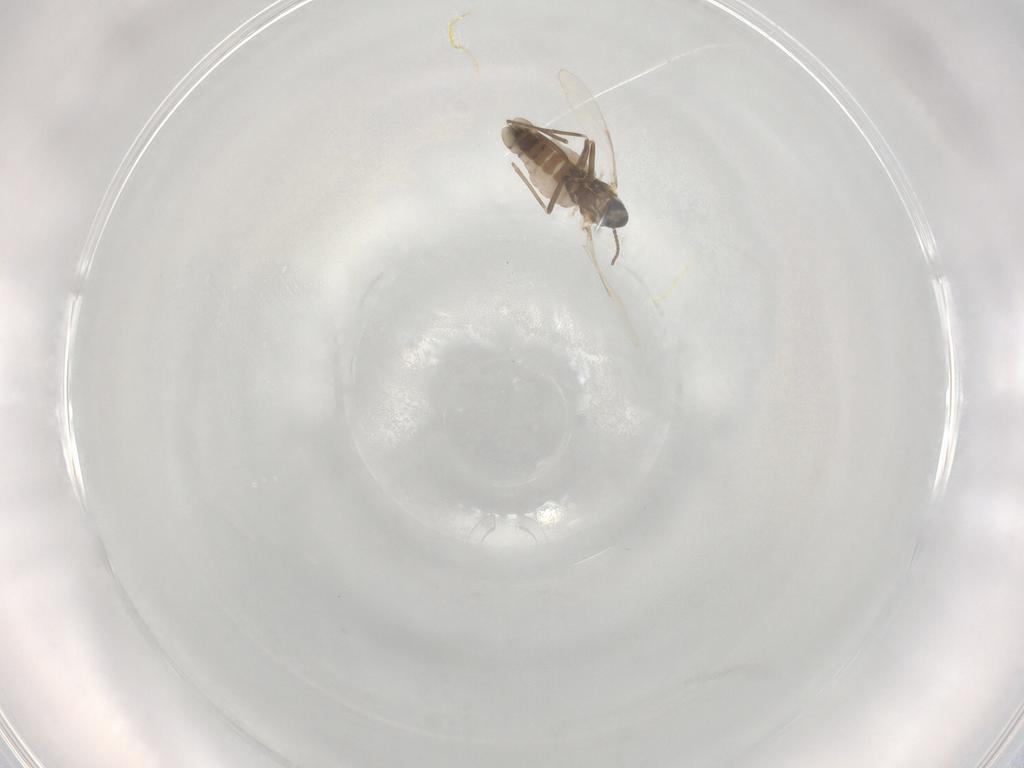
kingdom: Animalia
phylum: Arthropoda
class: Insecta
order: Diptera
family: Cecidomyiidae
